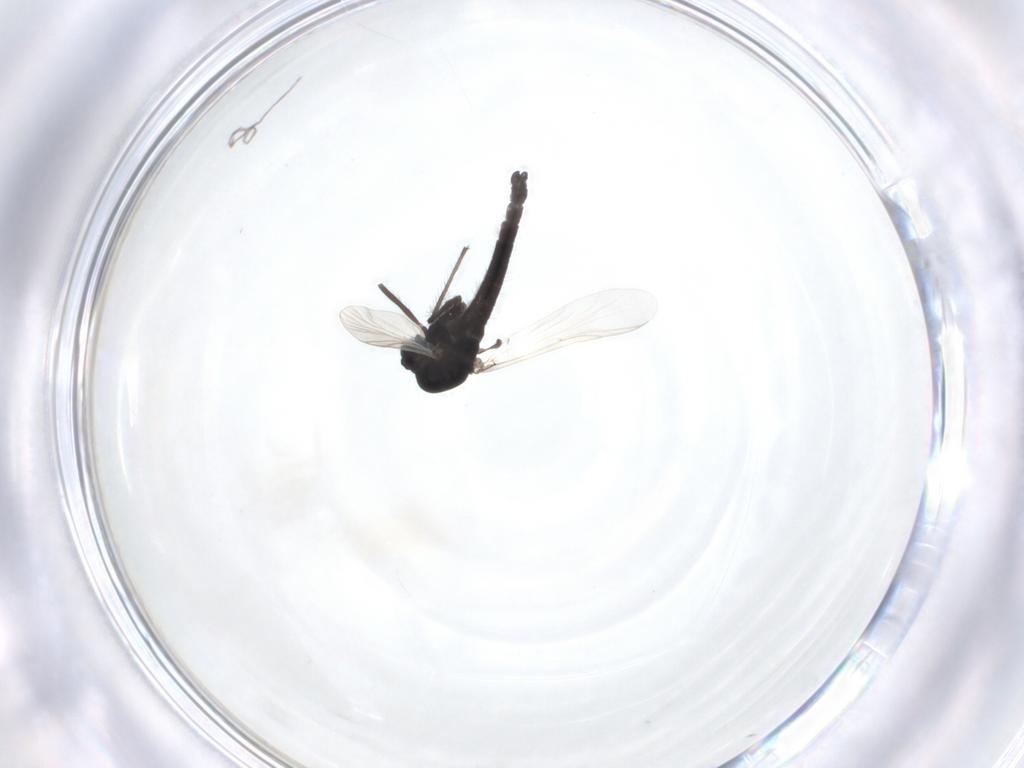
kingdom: Animalia
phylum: Arthropoda
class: Insecta
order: Diptera
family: Chironomidae
